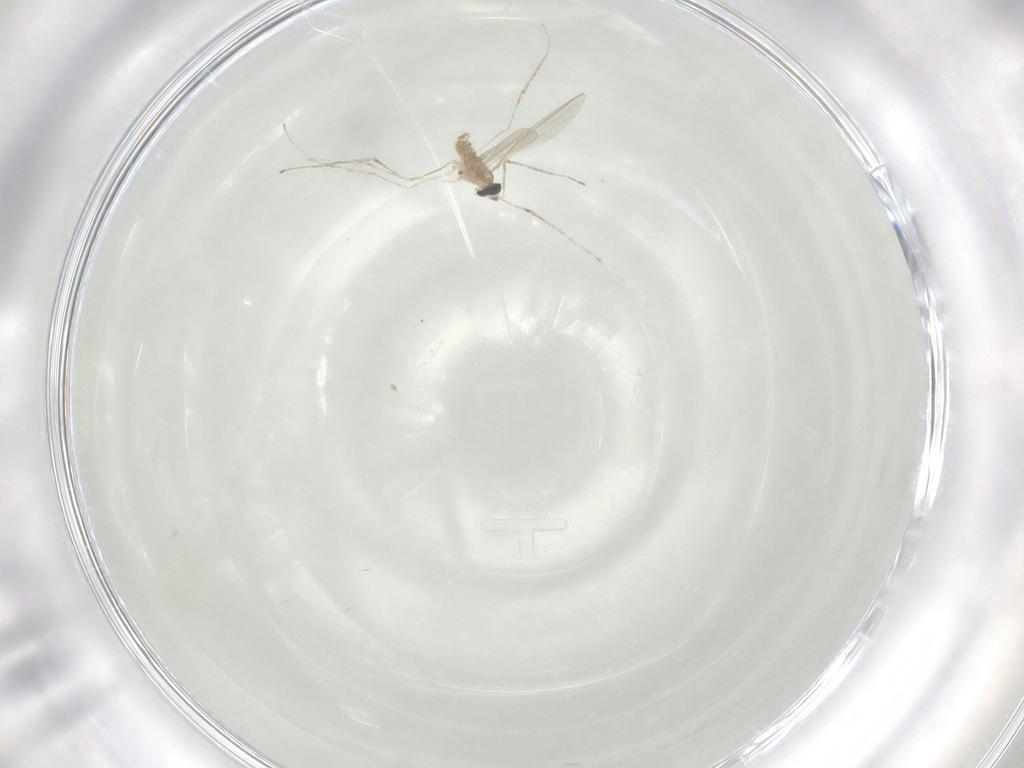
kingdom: Animalia
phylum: Arthropoda
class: Insecta
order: Diptera
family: Cecidomyiidae
